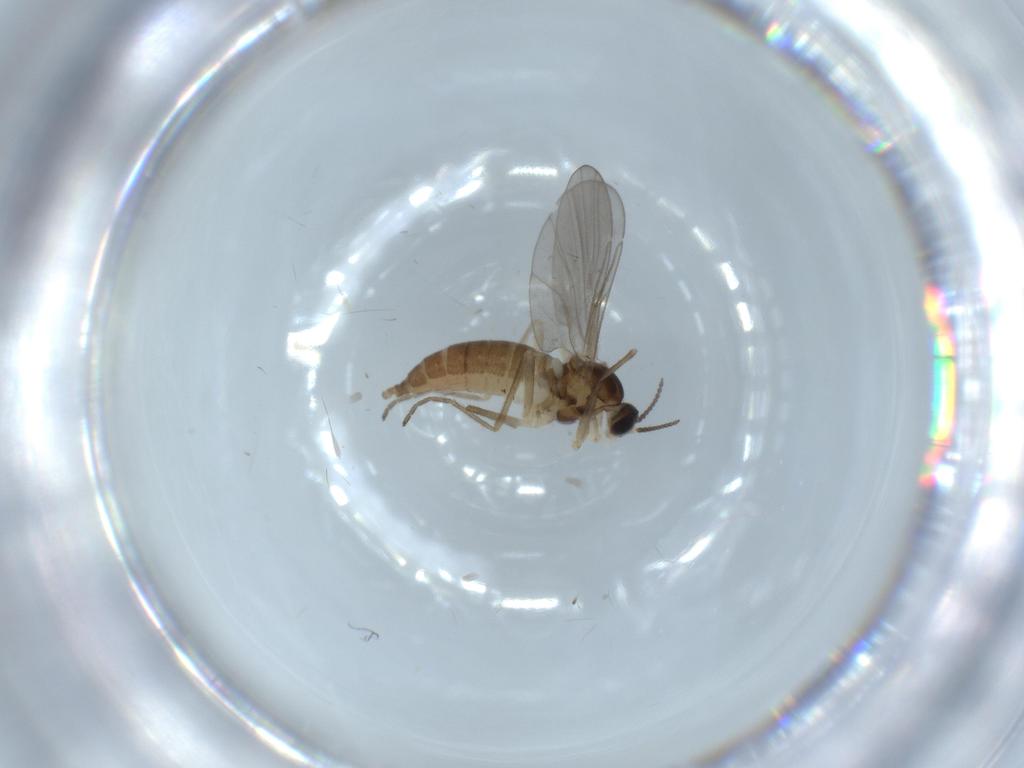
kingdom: Animalia
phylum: Arthropoda
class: Insecta
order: Diptera
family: Cecidomyiidae
